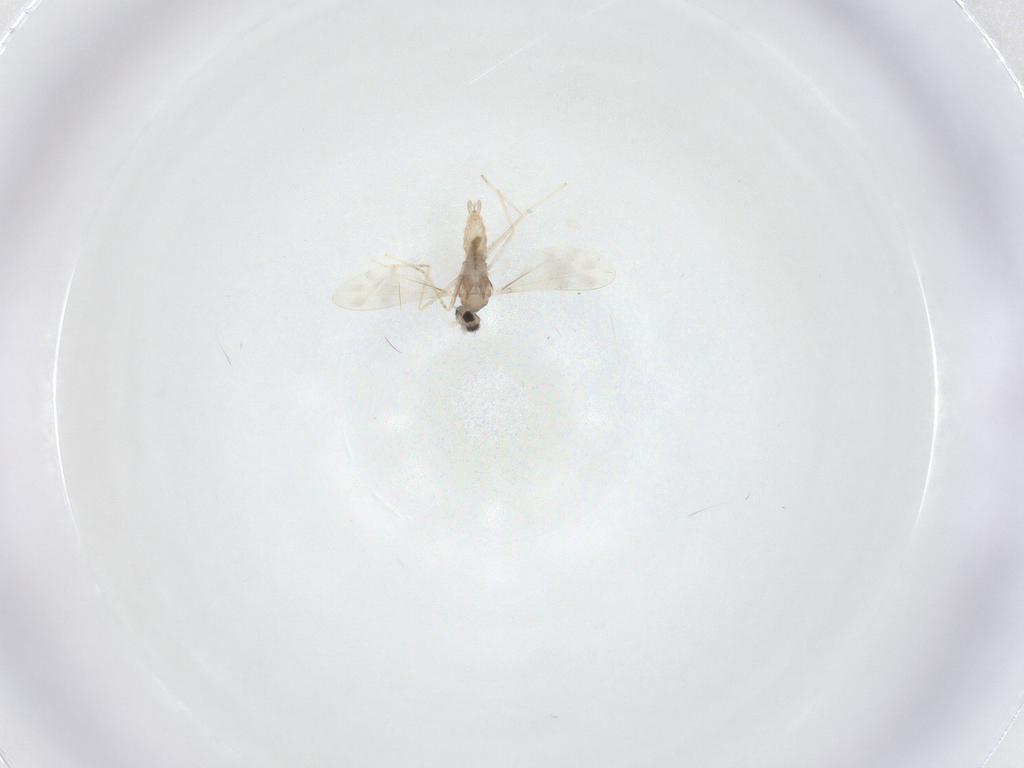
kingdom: Animalia
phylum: Arthropoda
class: Insecta
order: Diptera
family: Cecidomyiidae
